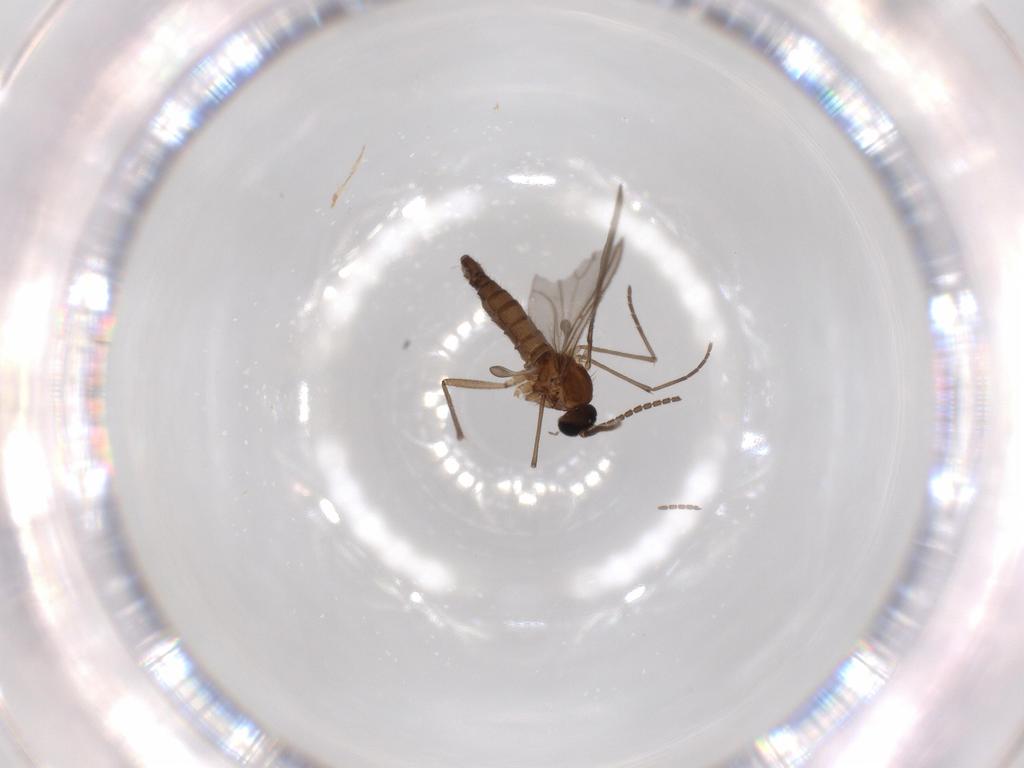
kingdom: Animalia
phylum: Arthropoda
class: Insecta
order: Diptera
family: Sciaridae
